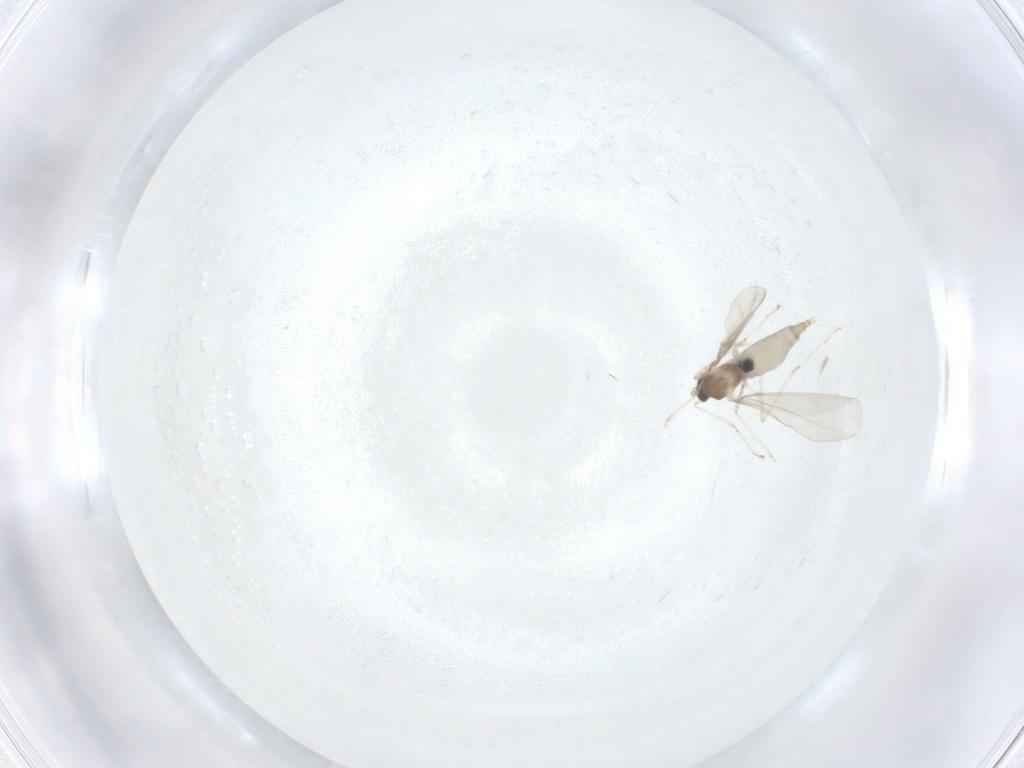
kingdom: Animalia
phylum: Arthropoda
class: Insecta
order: Diptera
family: Cecidomyiidae
